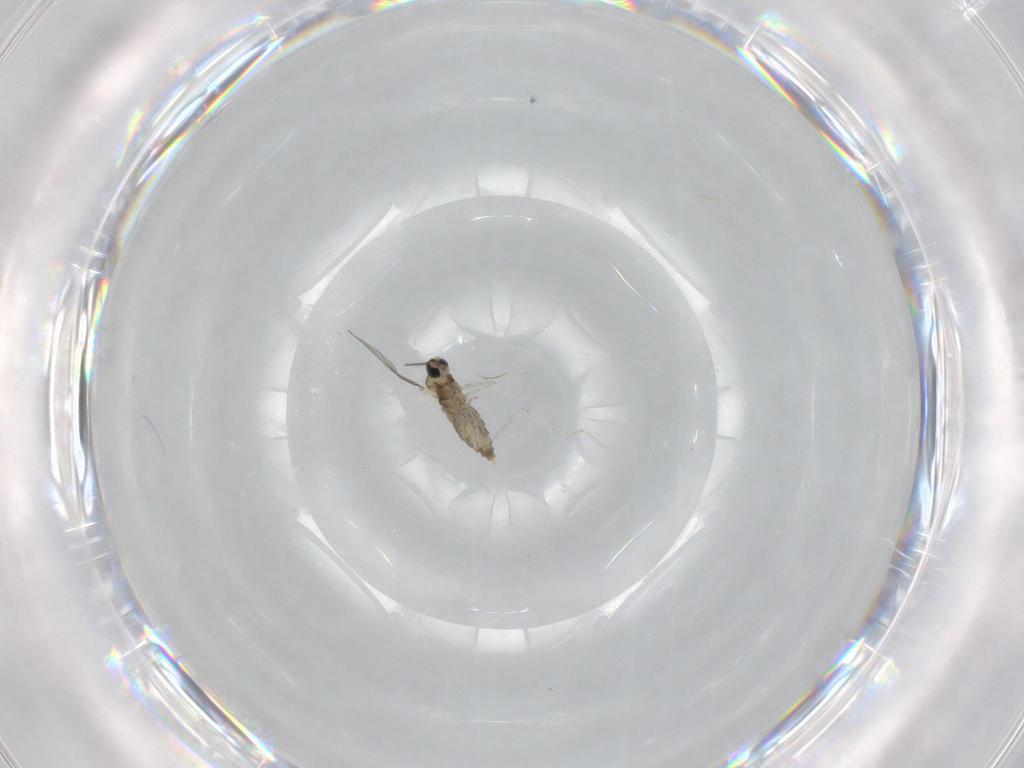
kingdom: Animalia
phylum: Arthropoda
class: Insecta
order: Diptera
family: Cecidomyiidae
